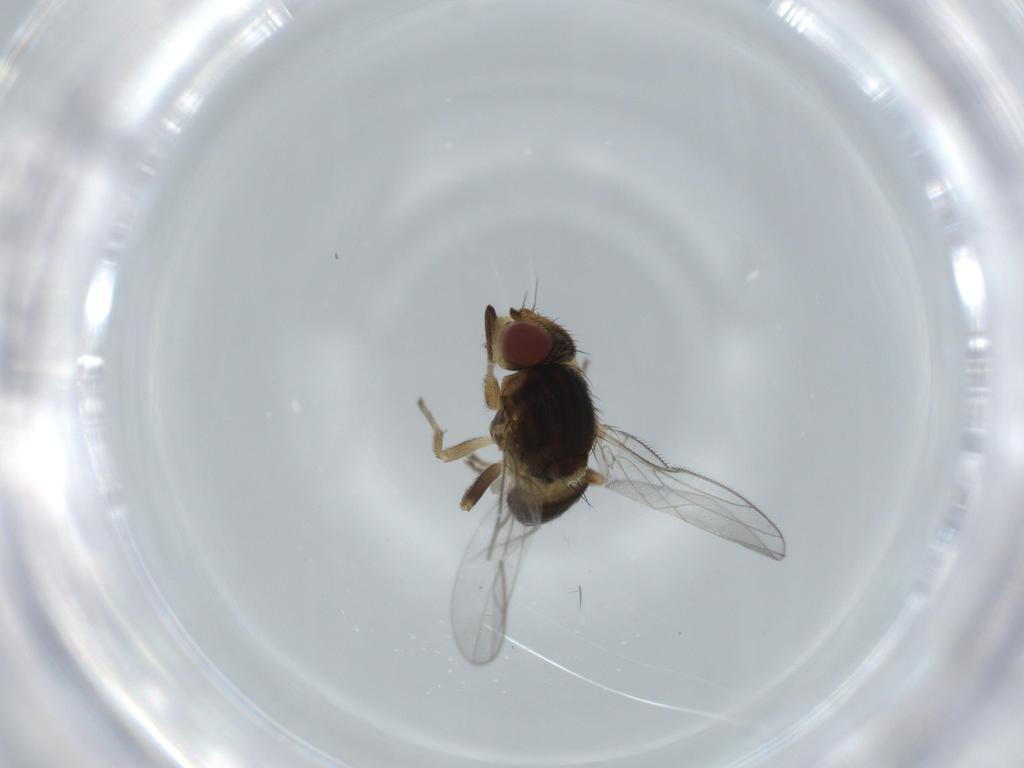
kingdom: Animalia
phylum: Arthropoda
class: Insecta
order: Diptera
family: Chloropidae
